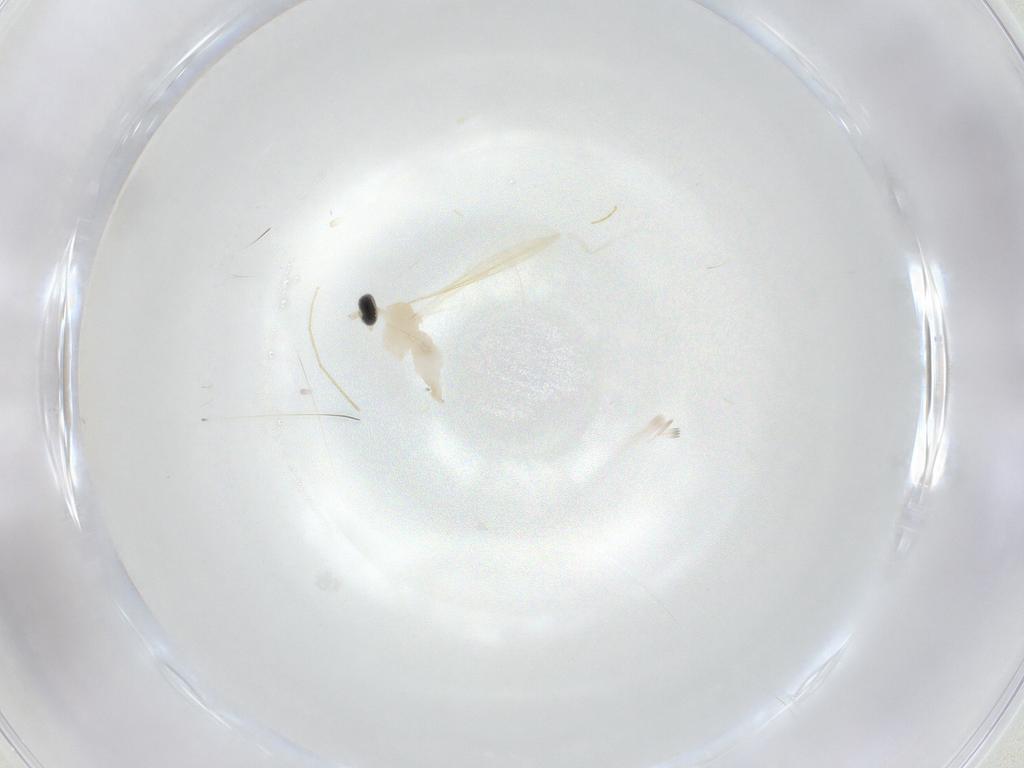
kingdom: Animalia
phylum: Arthropoda
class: Insecta
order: Diptera
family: Cecidomyiidae
